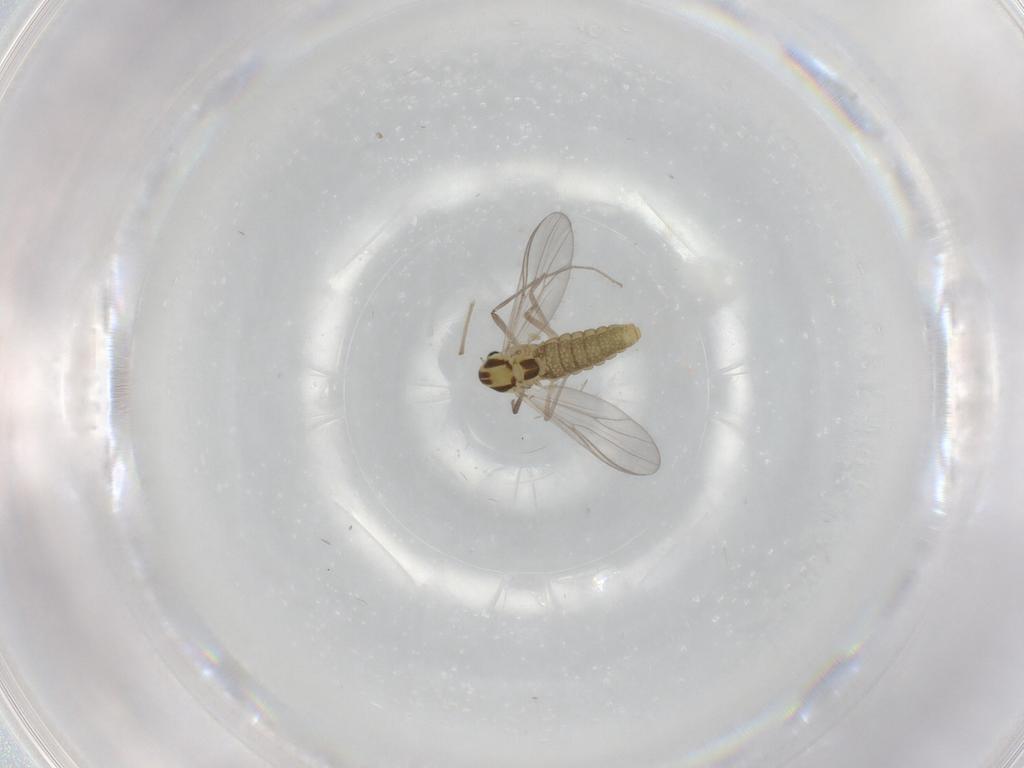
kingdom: Animalia
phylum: Arthropoda
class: Insecta
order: Diptera
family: Chironomidae
